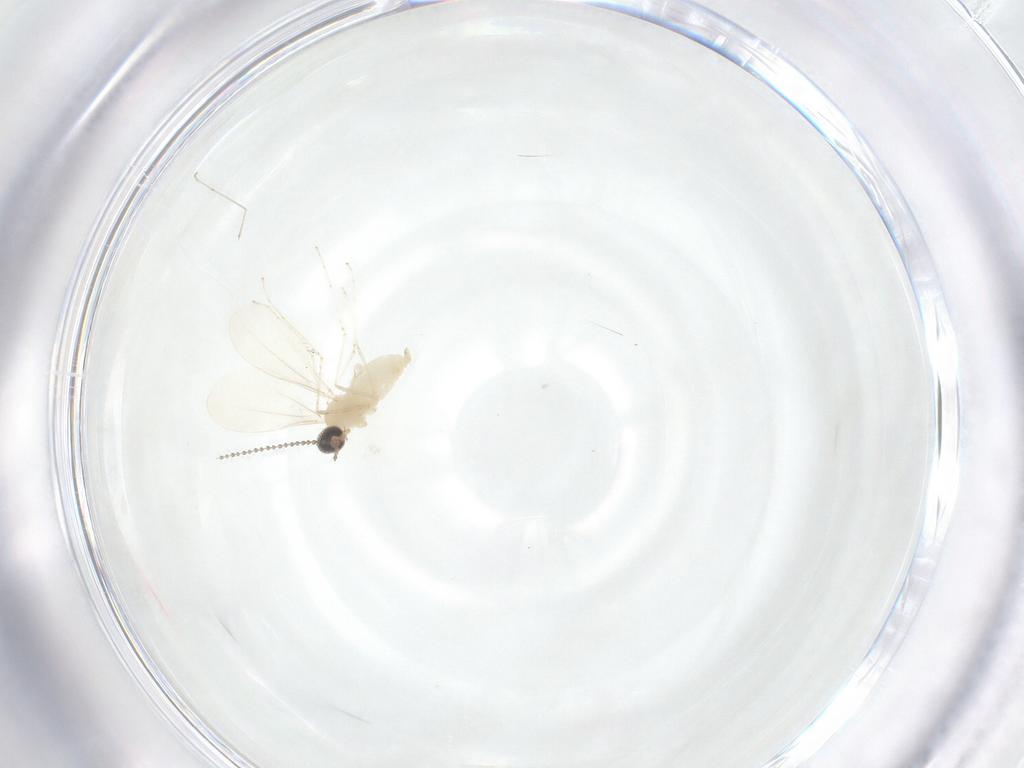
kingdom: Animalia
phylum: Arthropoda
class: Insecta
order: Diptera
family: Cecidomyiidae
